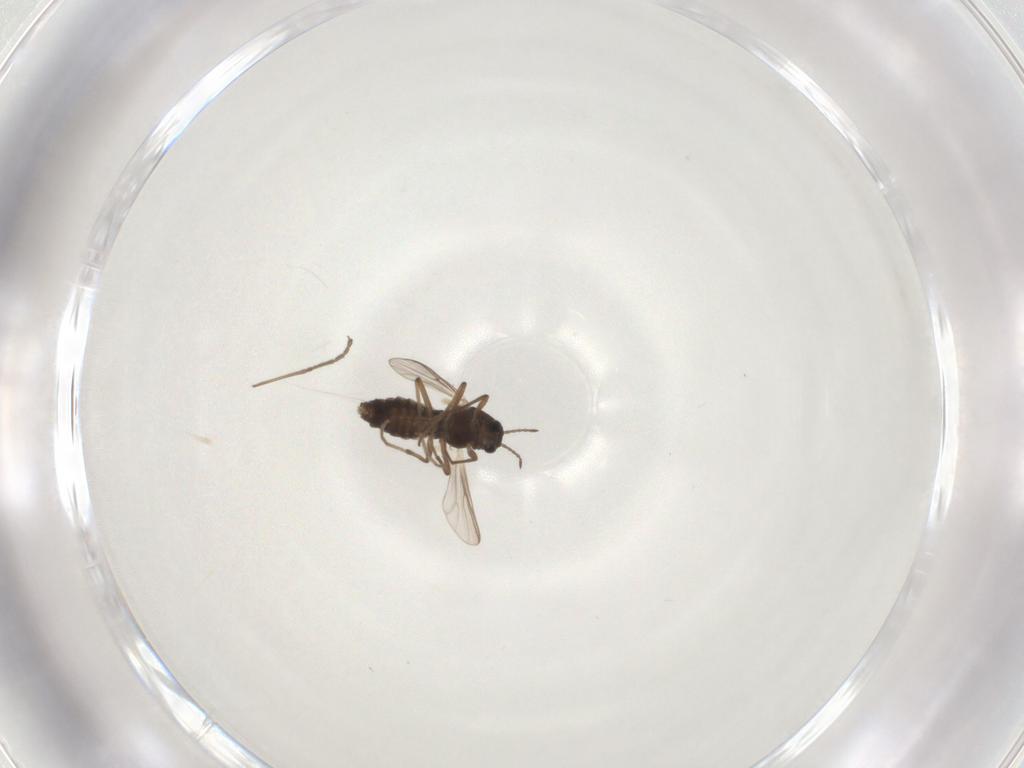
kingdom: Animalia
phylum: Arthropoda
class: Insecta
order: Diptera
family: Chironomidae
